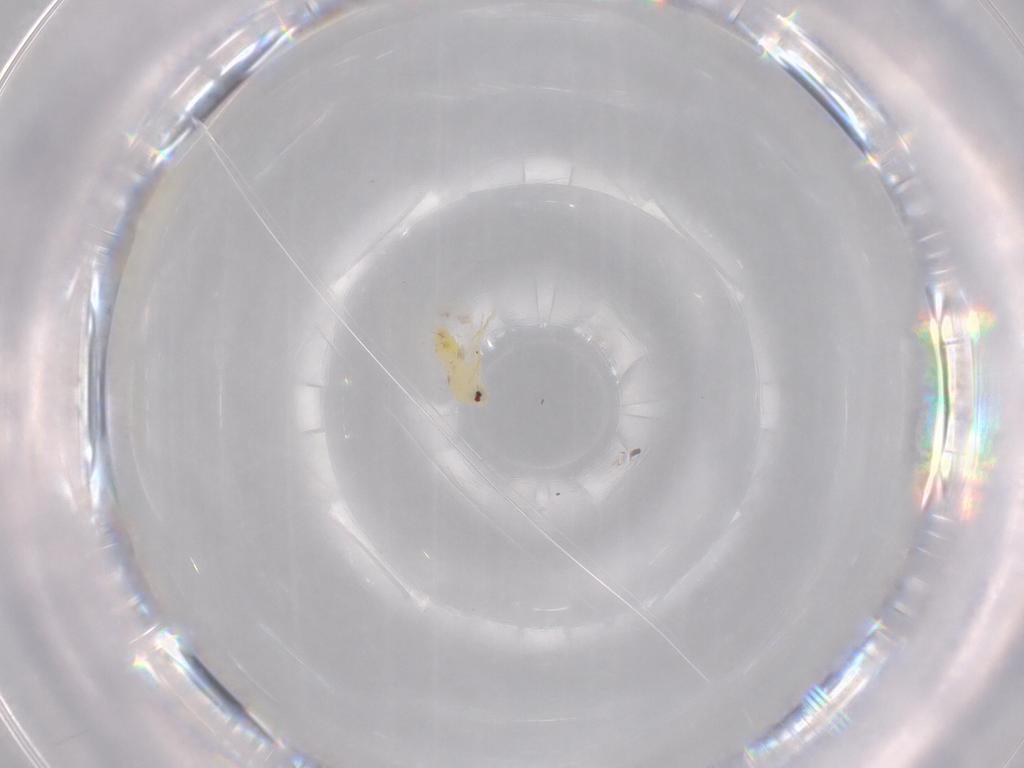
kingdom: Animalia
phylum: Arthropoda
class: Insecta
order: Hemiptera
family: Aleyrodidae
